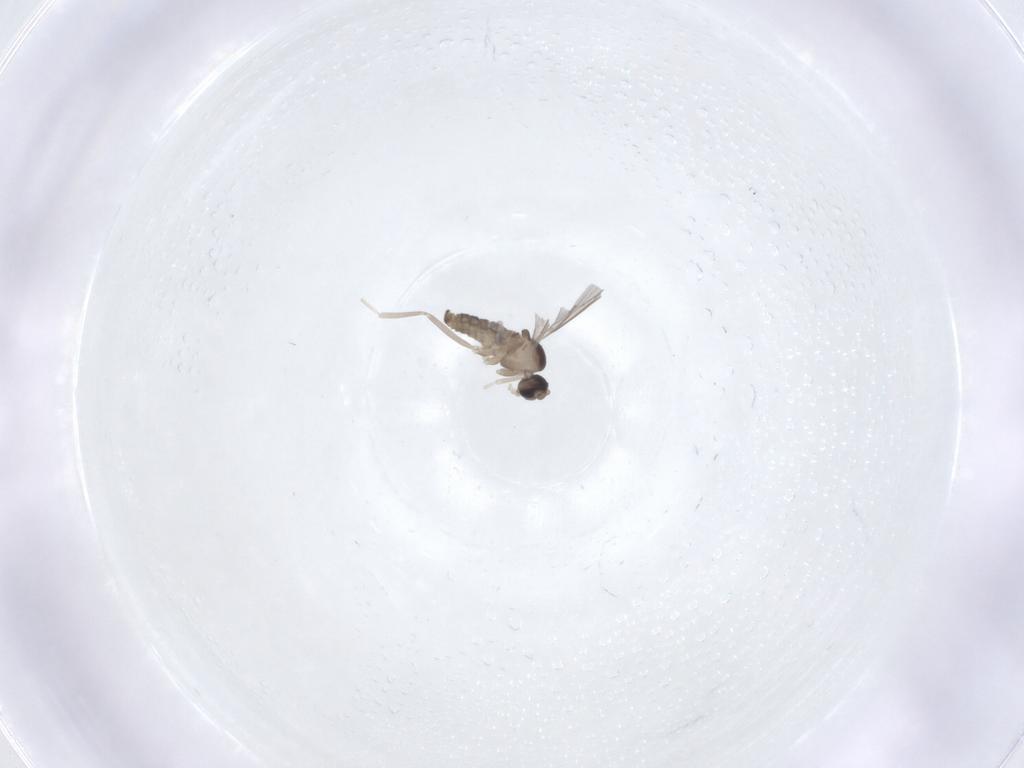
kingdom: Animalia
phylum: Arthropoda
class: Insecta
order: Diptera
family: Cecidomyiidae
